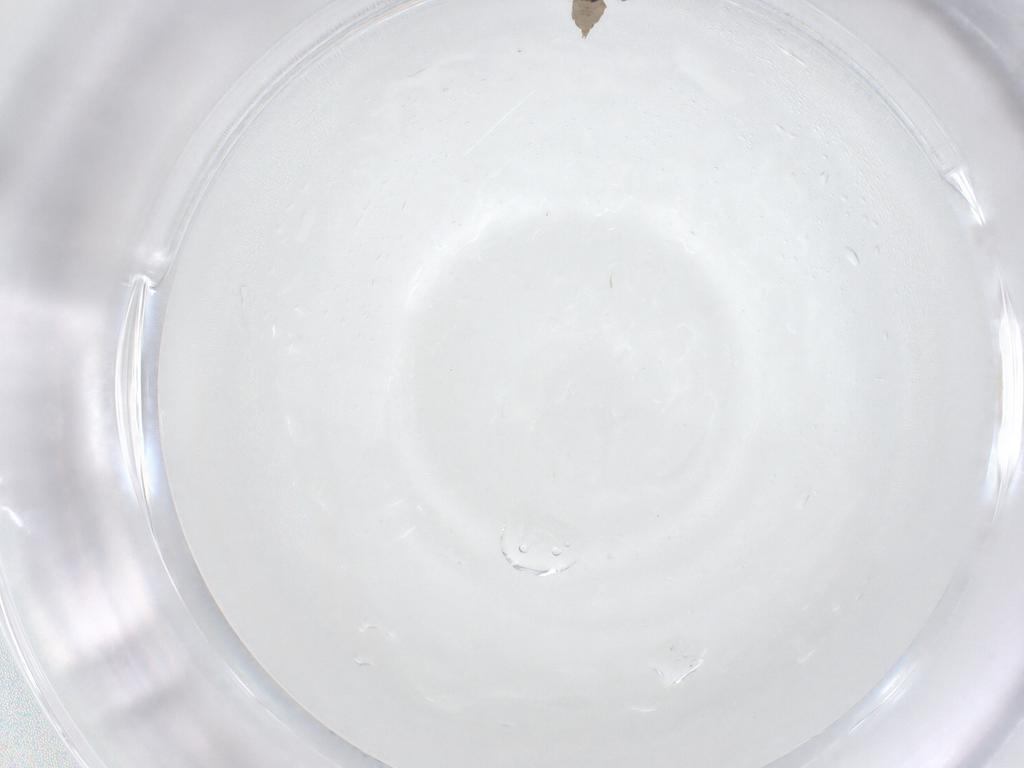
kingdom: Animalia
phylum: Arthropoda
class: Insecta
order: Diptera
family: Cecidomyiidae
